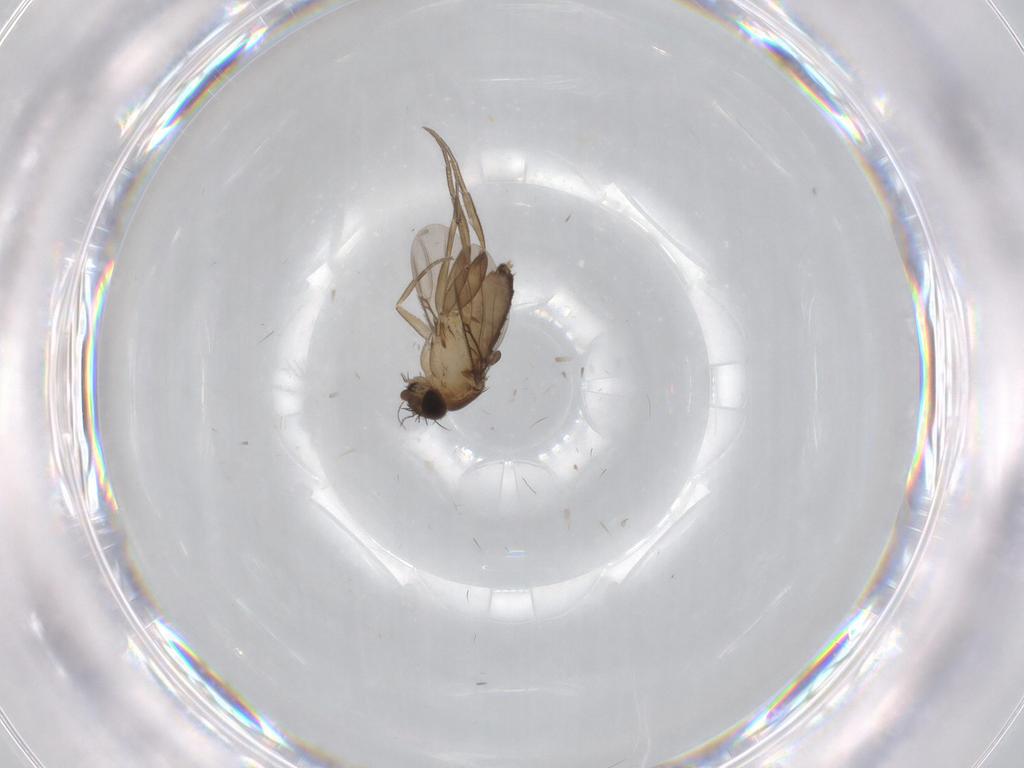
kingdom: Animalia
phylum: Arthropoda
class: Insecta
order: Diptera
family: Phoridae
